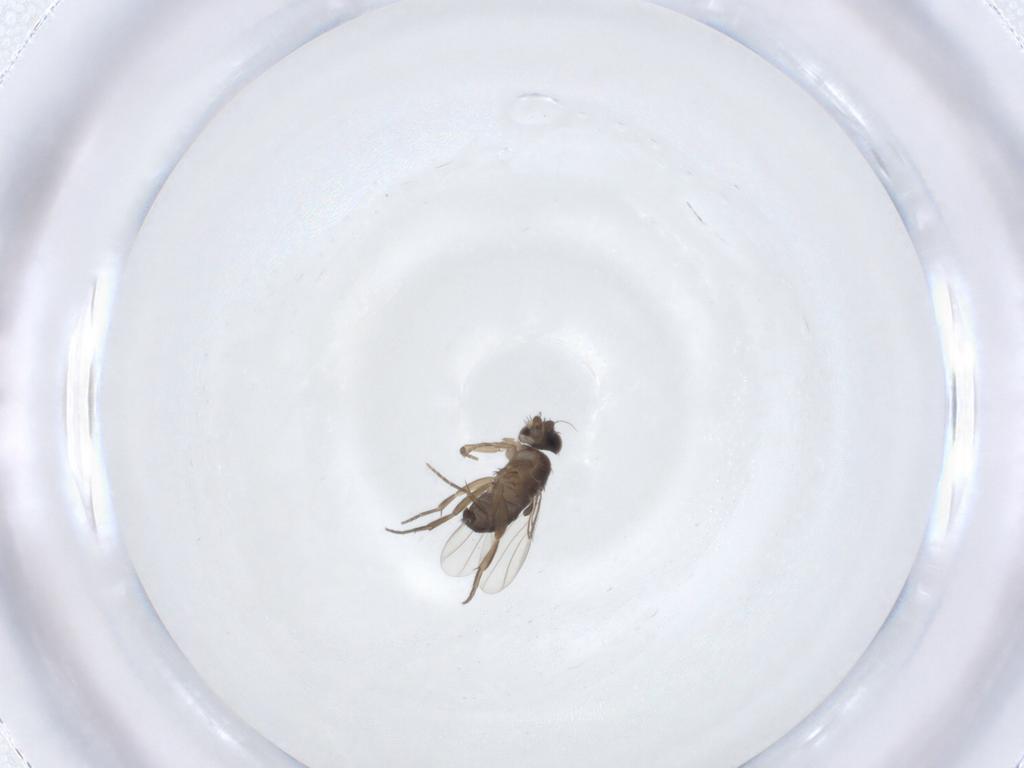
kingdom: Animalia
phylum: Arthropoda
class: Insecta
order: Diptera
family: Phoridae
